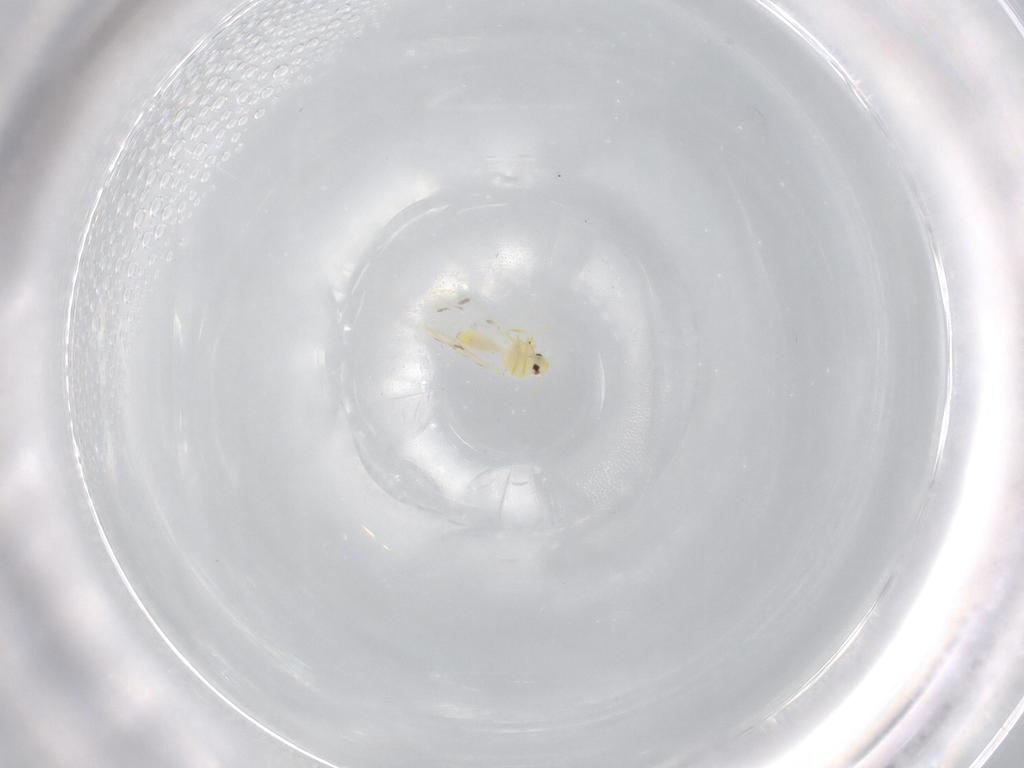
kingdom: Animalia
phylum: Arthropoda
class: Insecta
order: Hemiptera
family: Aleyrodidae
